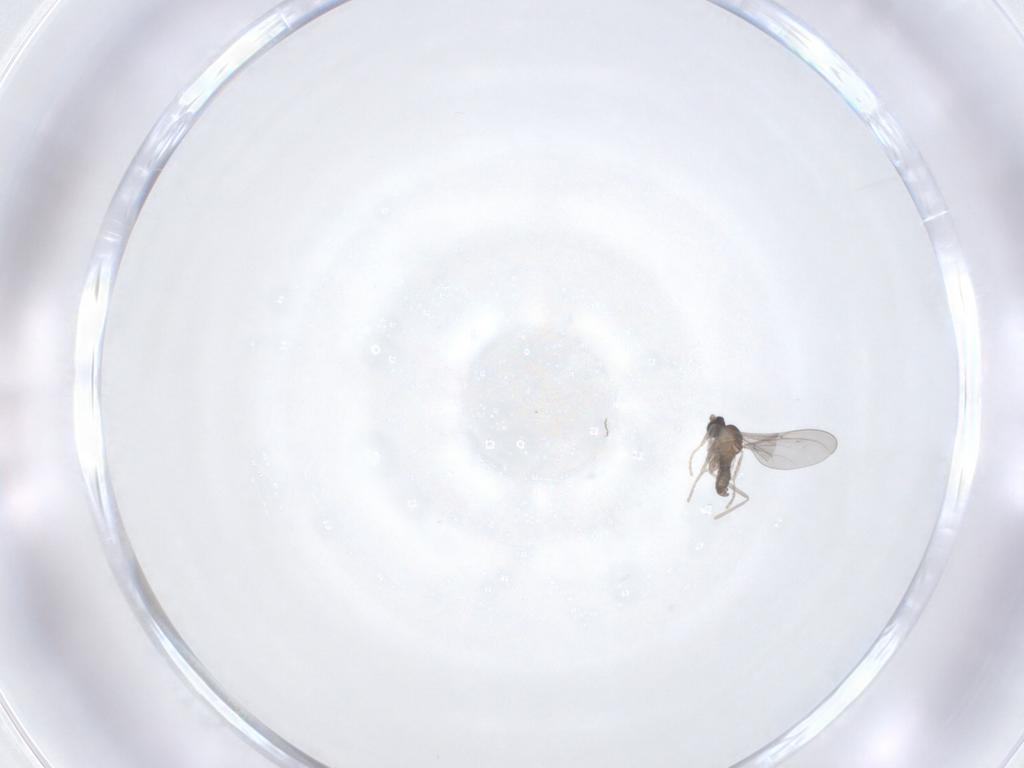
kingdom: Animalia
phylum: Arthropoda
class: Insecta
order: Diptera
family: Cecidomyiidae
